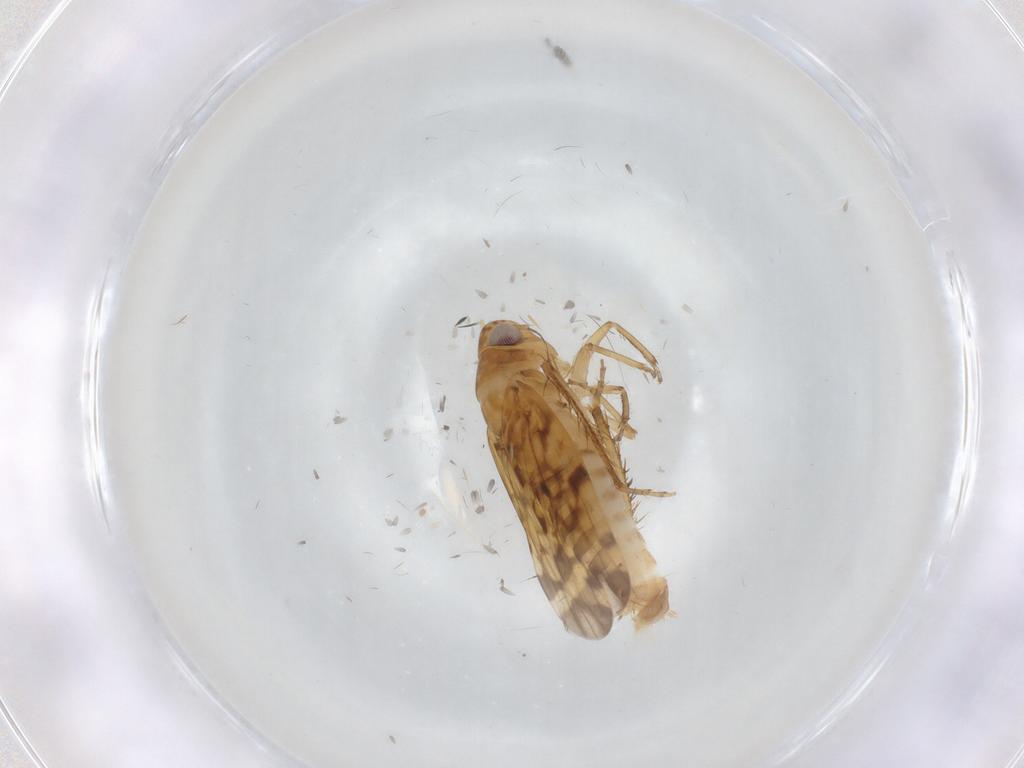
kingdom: Animalia
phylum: Arthropoda
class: Insecta
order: Hemiptera
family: Cicadellidae
